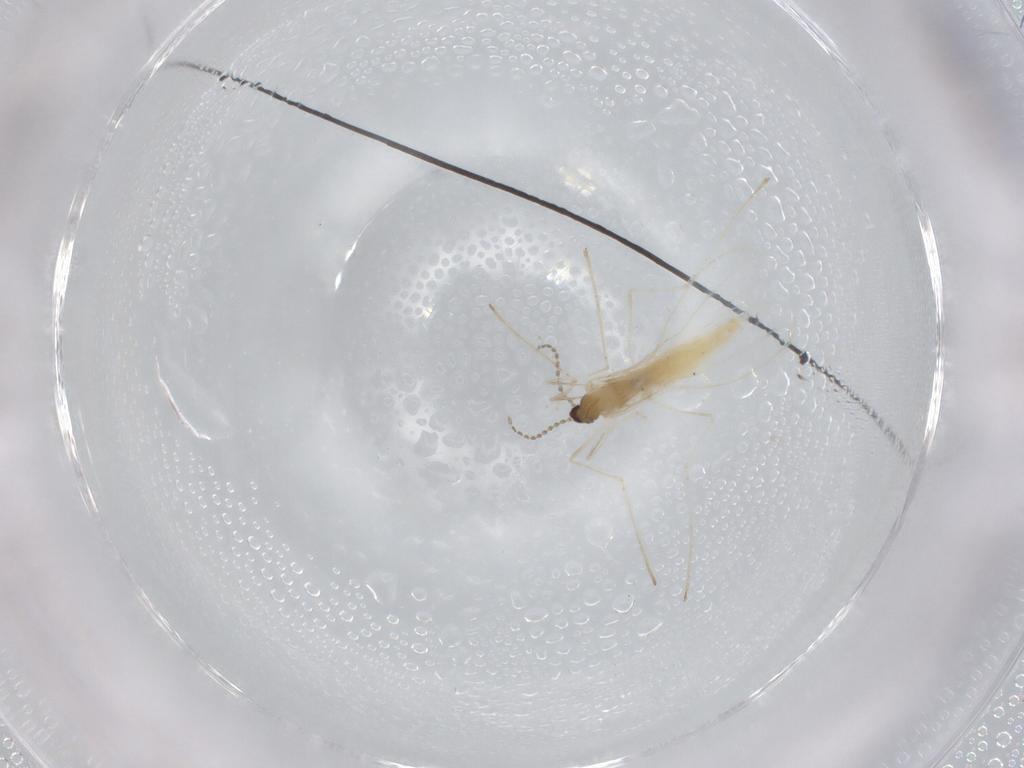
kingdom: Animalia
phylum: Arthropoda
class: Insecta
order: Diptera
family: Cecidomyiidae
